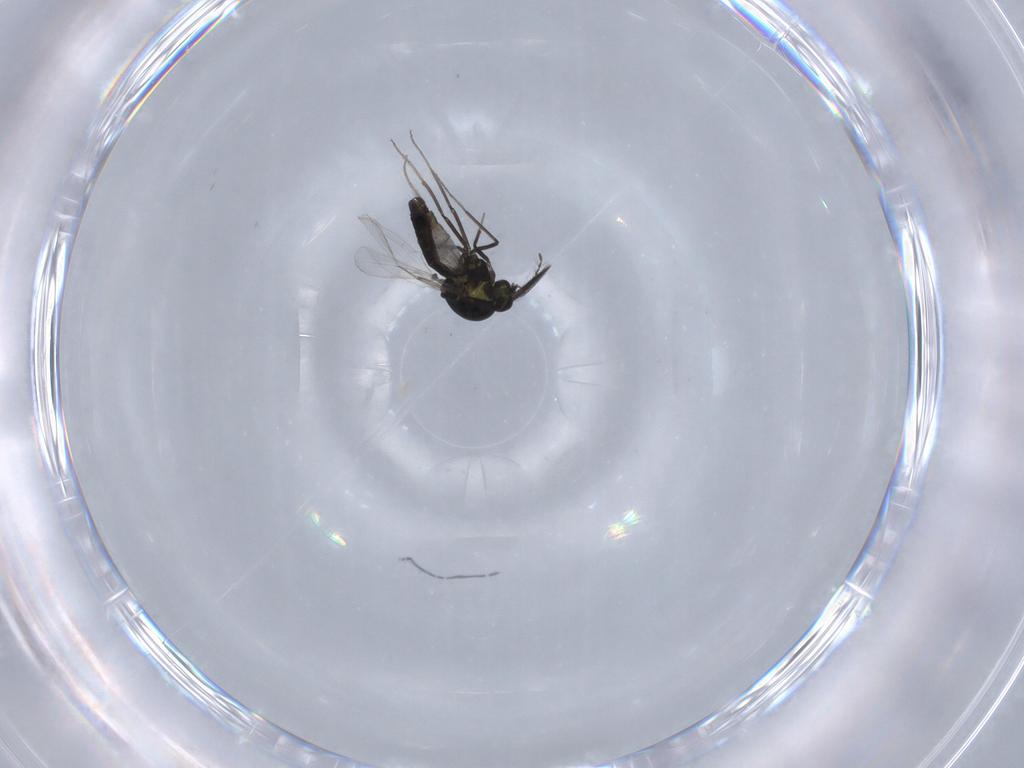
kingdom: Animalia
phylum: Arthropoda
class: Insecta
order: Diptera
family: Ceratopogonidae
